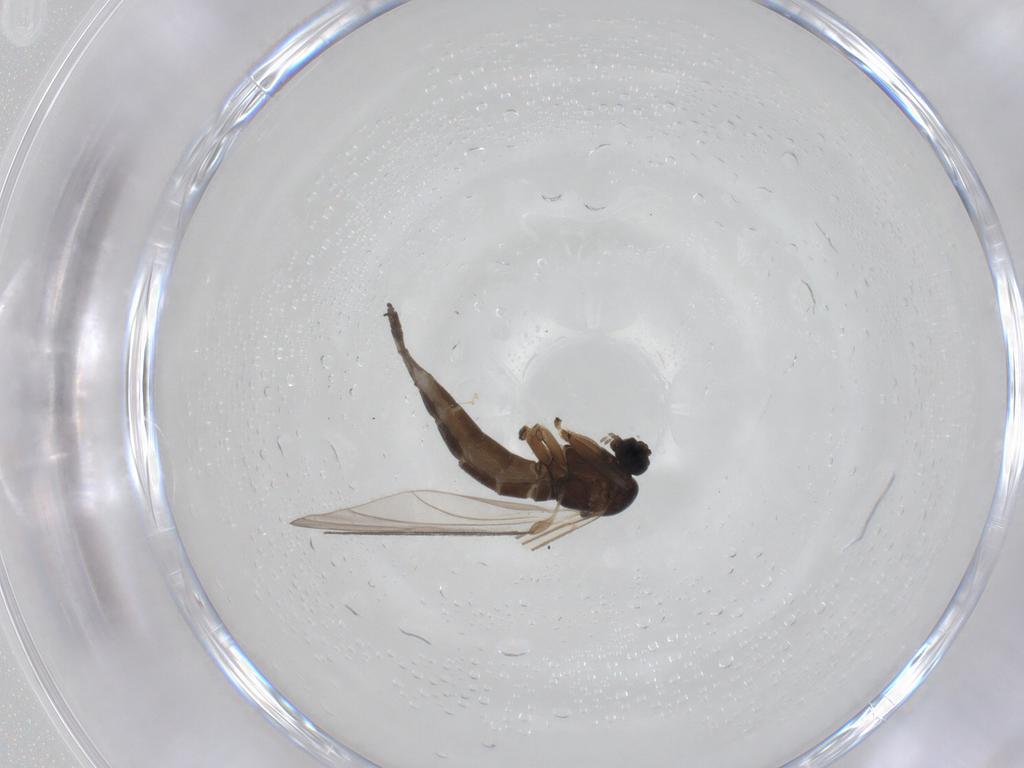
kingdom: Animalia
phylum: Arthropoda
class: Insecta
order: Diptera
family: Sciaridae
